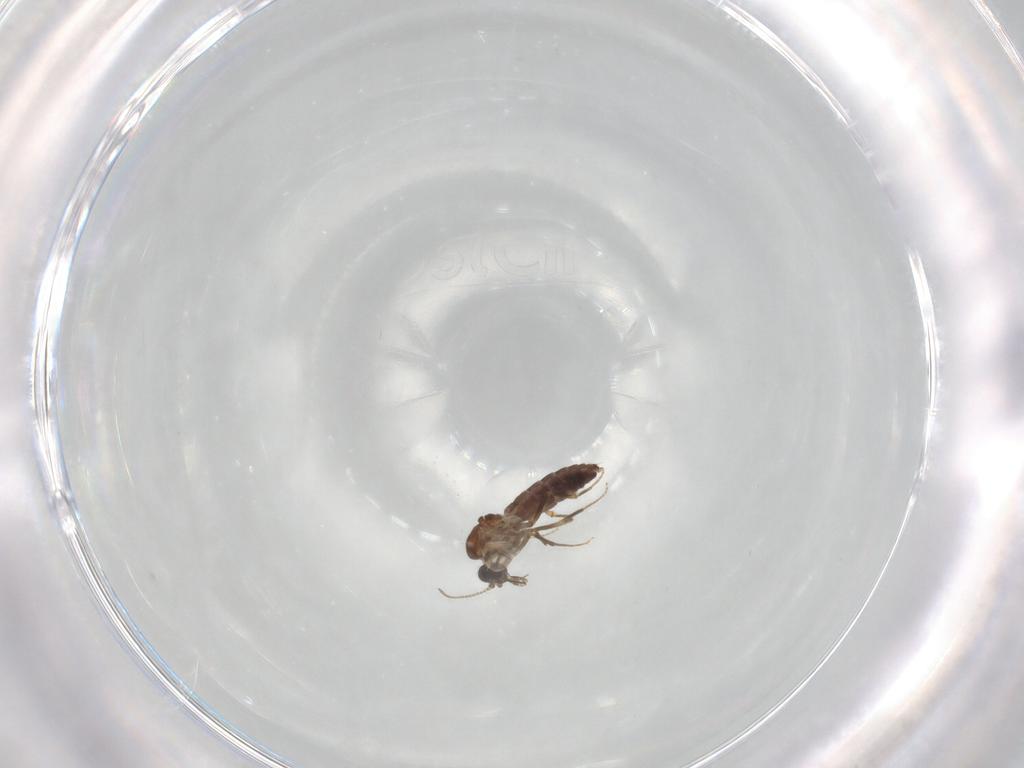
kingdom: Animalia
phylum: Arthropoda
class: Insecta
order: Diptera
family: Ceratopogonidae
